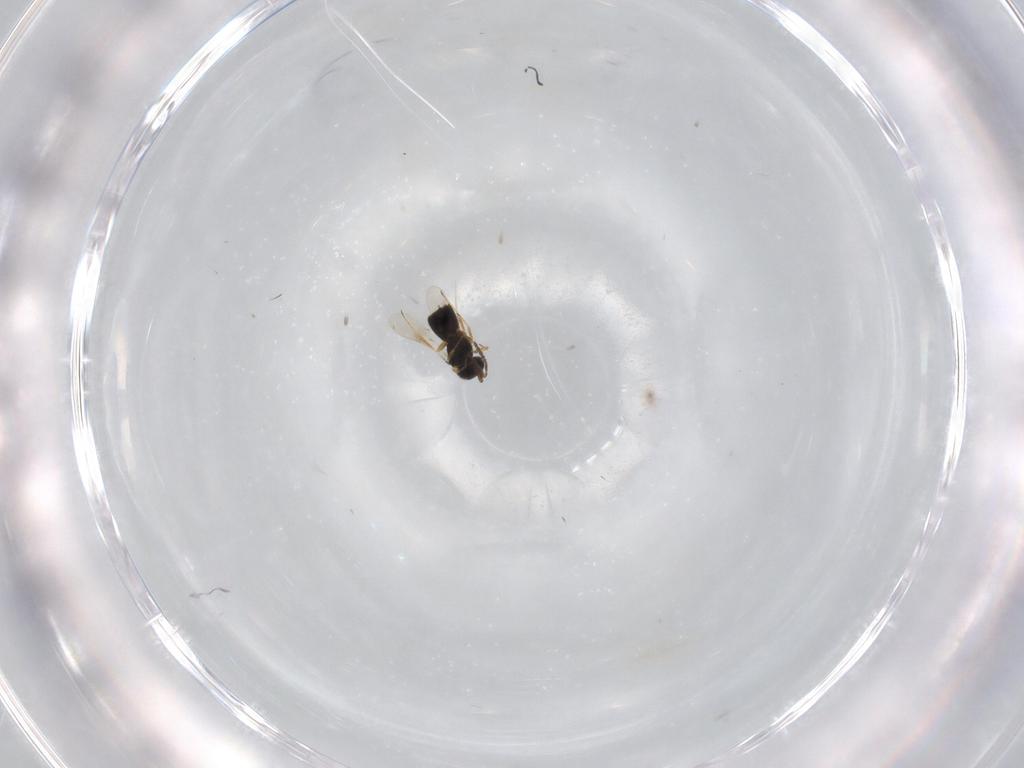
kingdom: Animalia
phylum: Arthropoda
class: Insecta
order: Hymenoptera
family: Scelionidae
